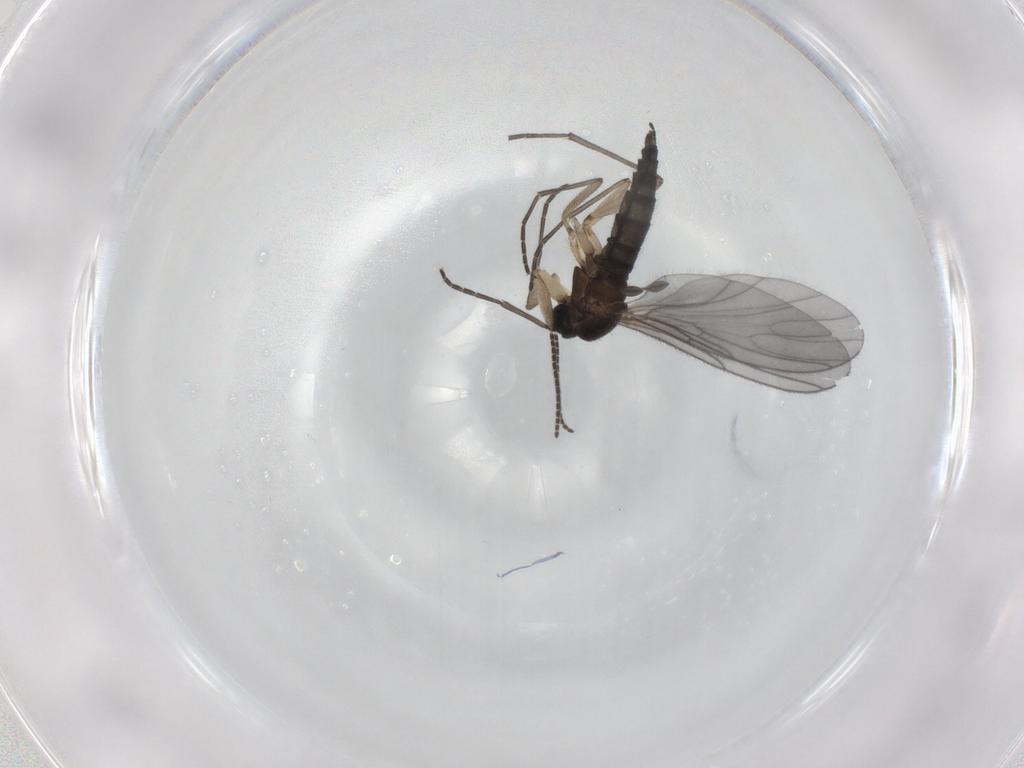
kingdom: Animalia
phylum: Arthropoda
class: Insecta
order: Diptera
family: Sciaridae
